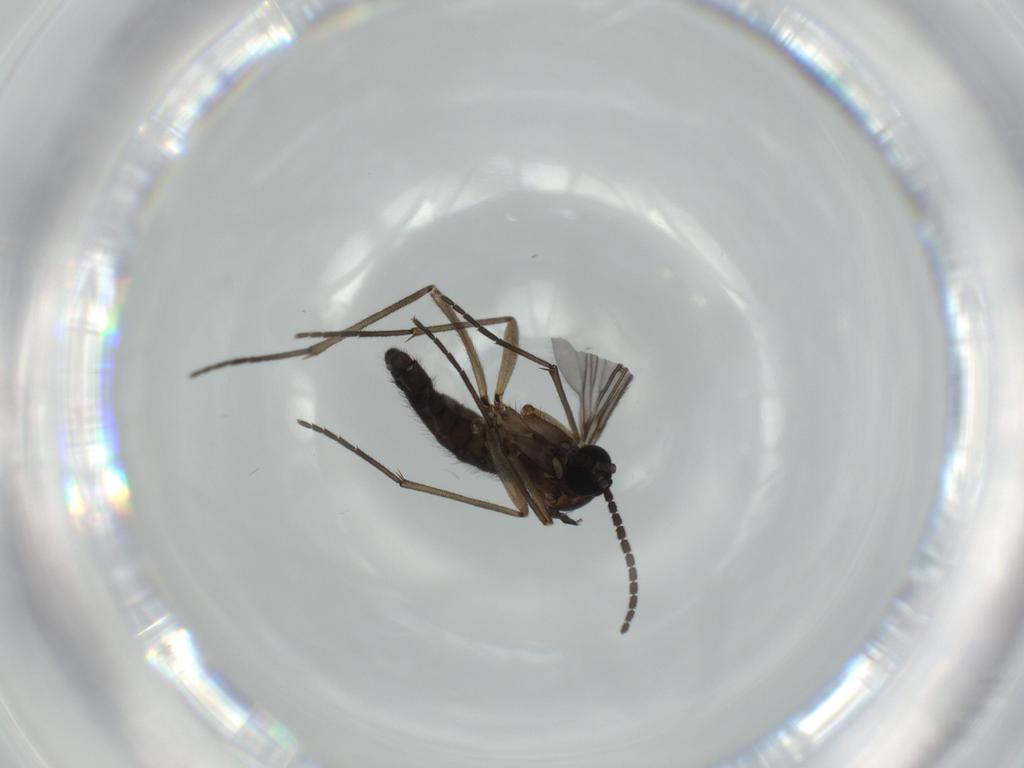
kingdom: Animalia
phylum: Arthropoda
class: Insecta
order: Diptera
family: Sciaridae
